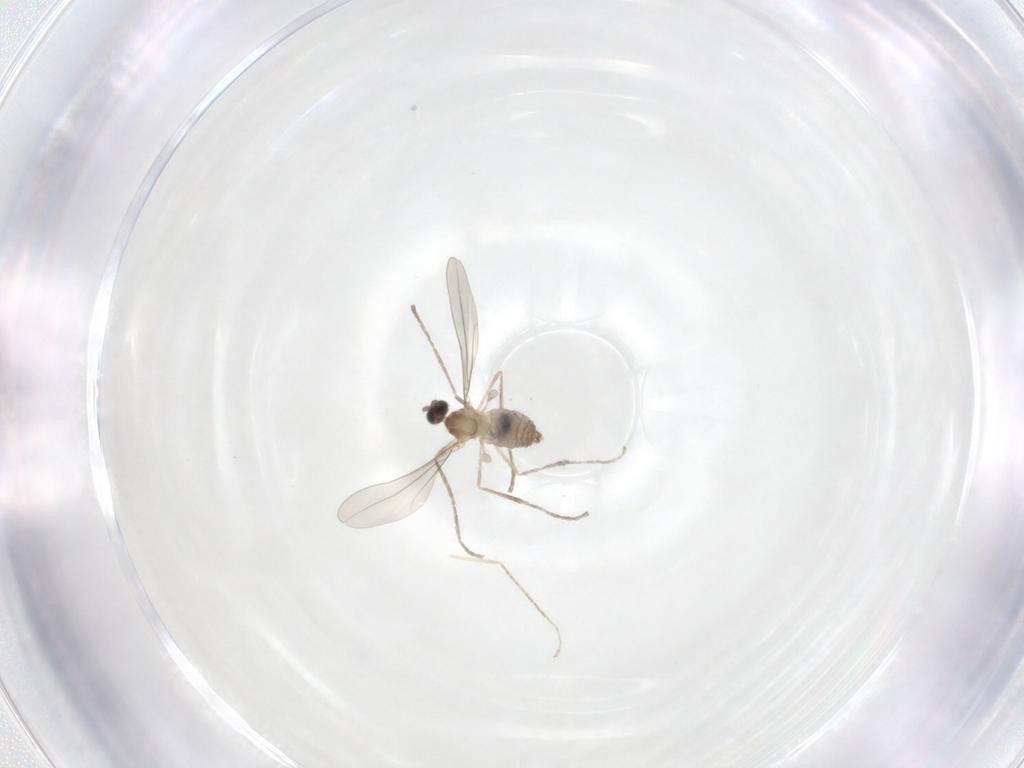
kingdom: Animalia
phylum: Arthropoda
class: Insecta
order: Diptera
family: Cecidomyiidae
